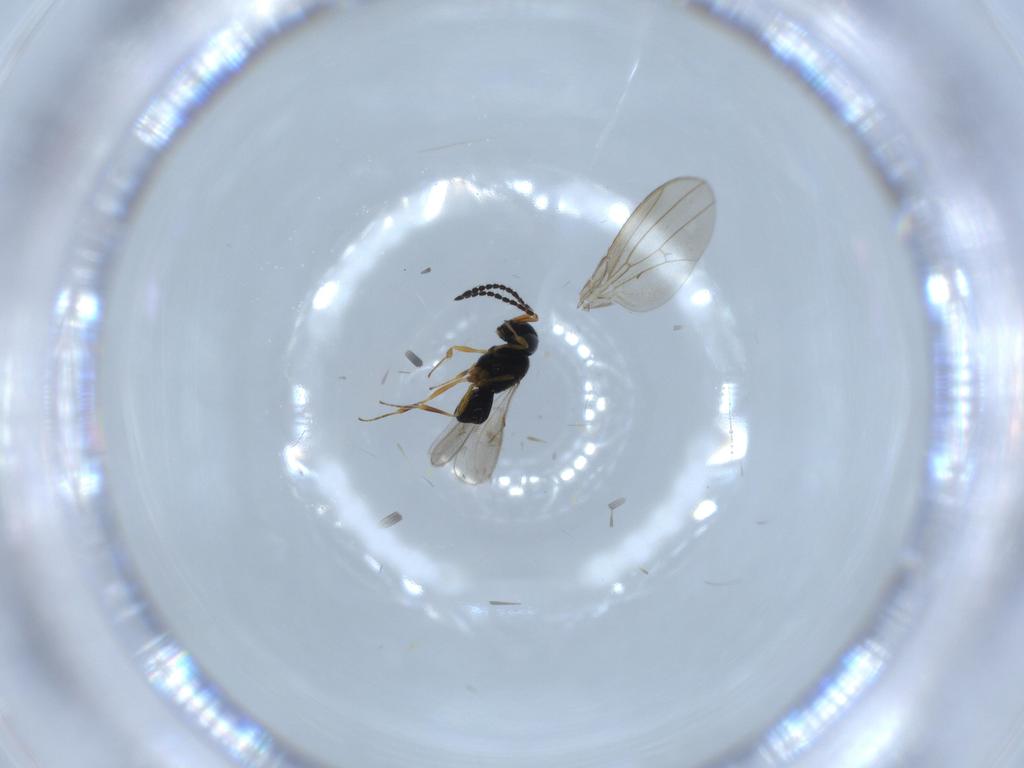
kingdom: Animalia
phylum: Arthropoda
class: Insecta
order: Hymenoptera
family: Scelionidae
